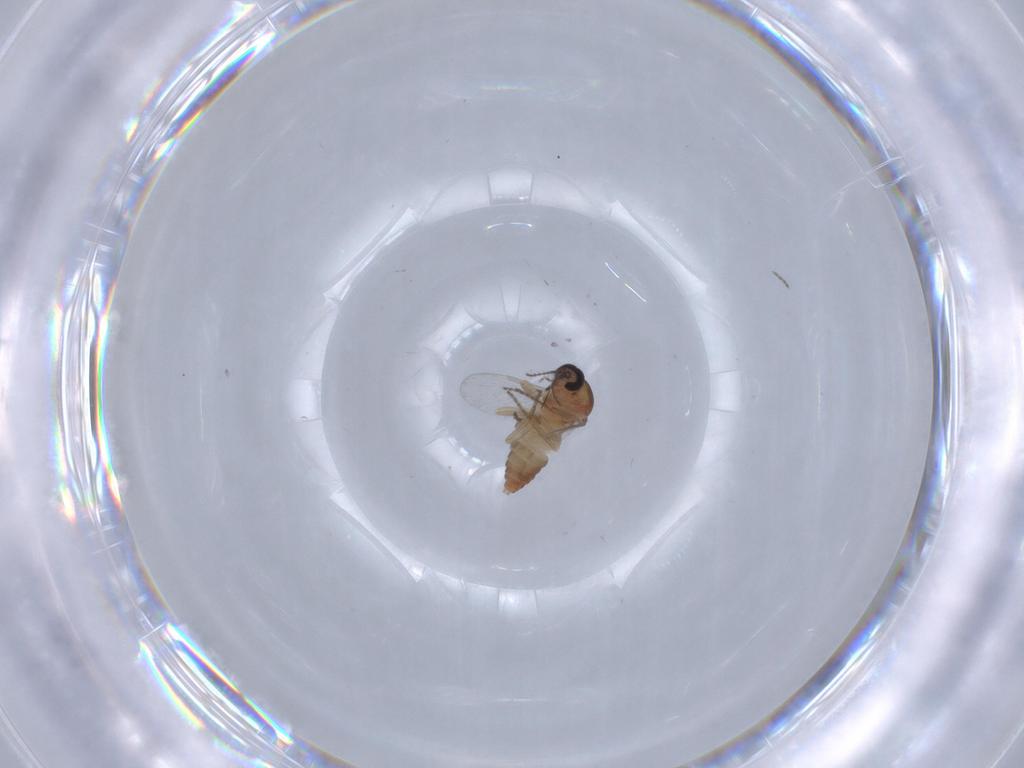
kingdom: Animalia
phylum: Arthropoda
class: Insecta
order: Diptera
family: Ceratopogonidae
